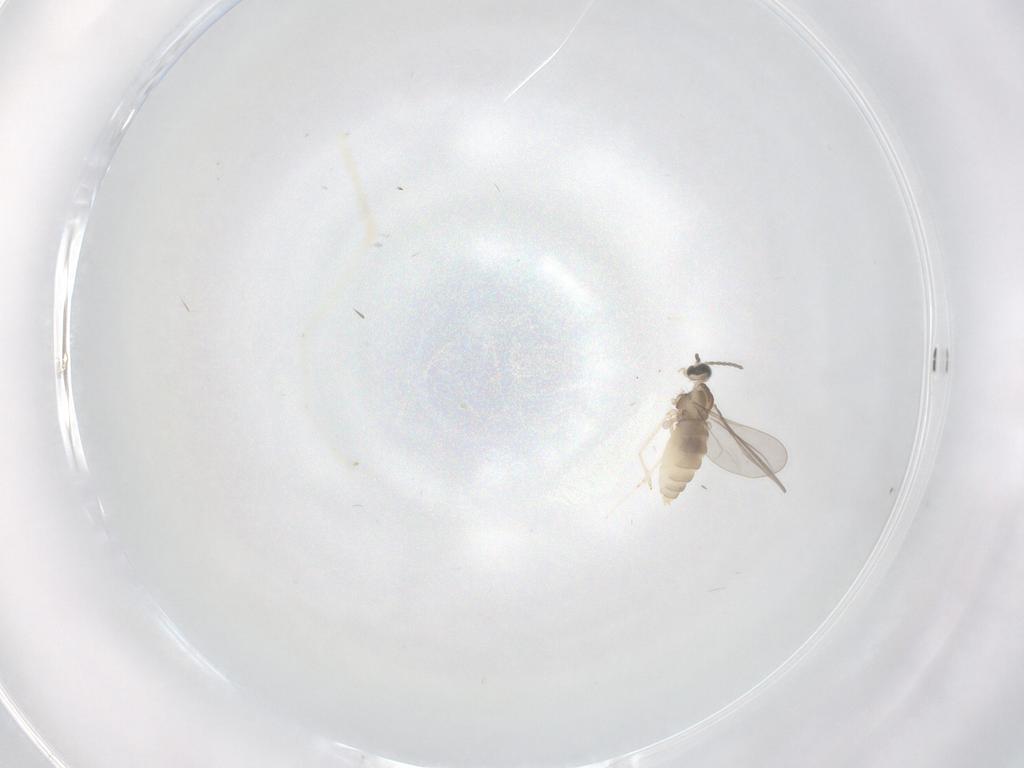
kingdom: Animalia
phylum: Arthropoda
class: Insecta
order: Diptera
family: Cecidomyiidae
